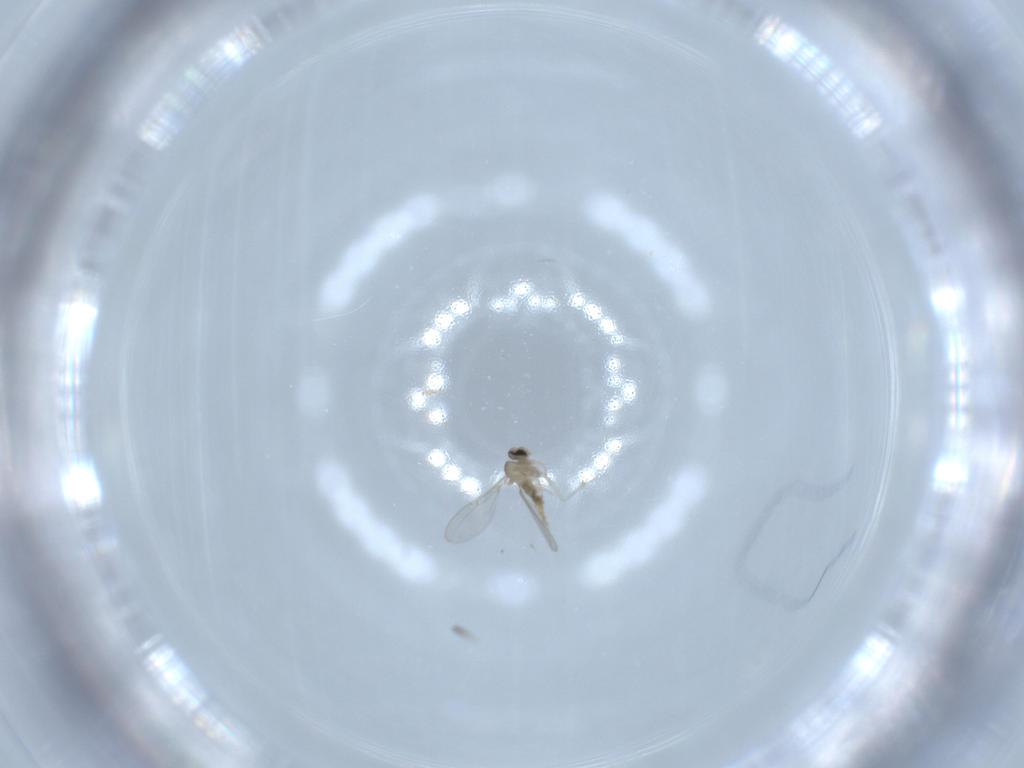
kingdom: Animalia
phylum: Arthropoda
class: Insecta
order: Diptera
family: Cecidomyiidae
